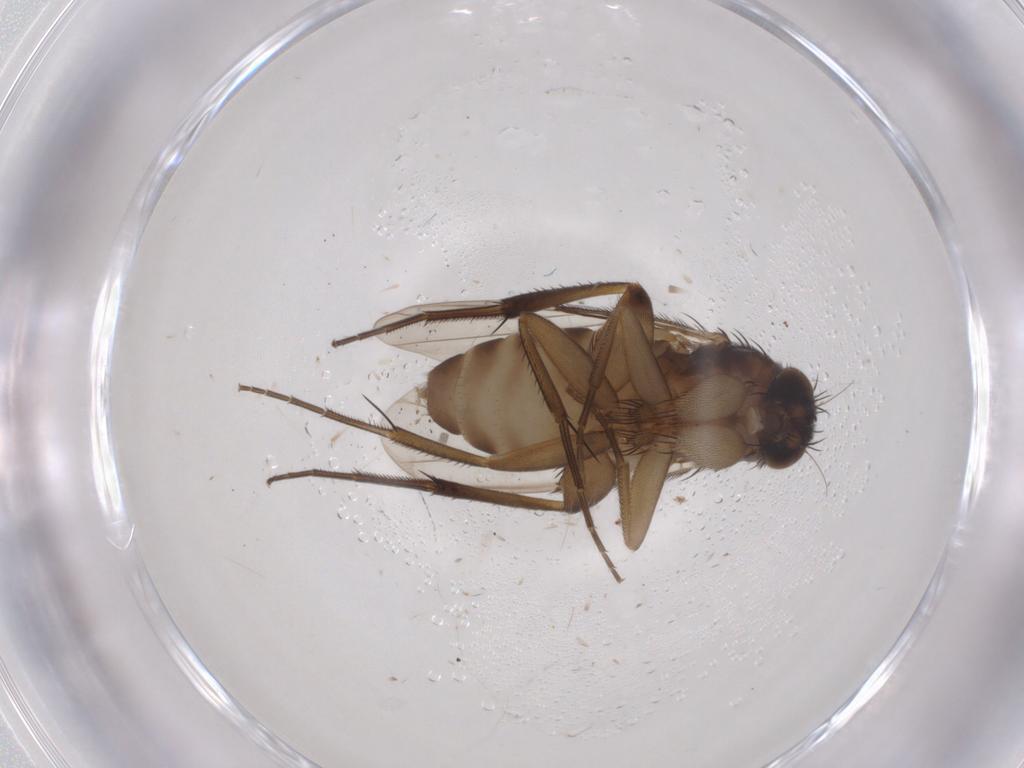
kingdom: Animalia
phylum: Arthropoda
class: Insecta
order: Diptera
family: Phoridae
